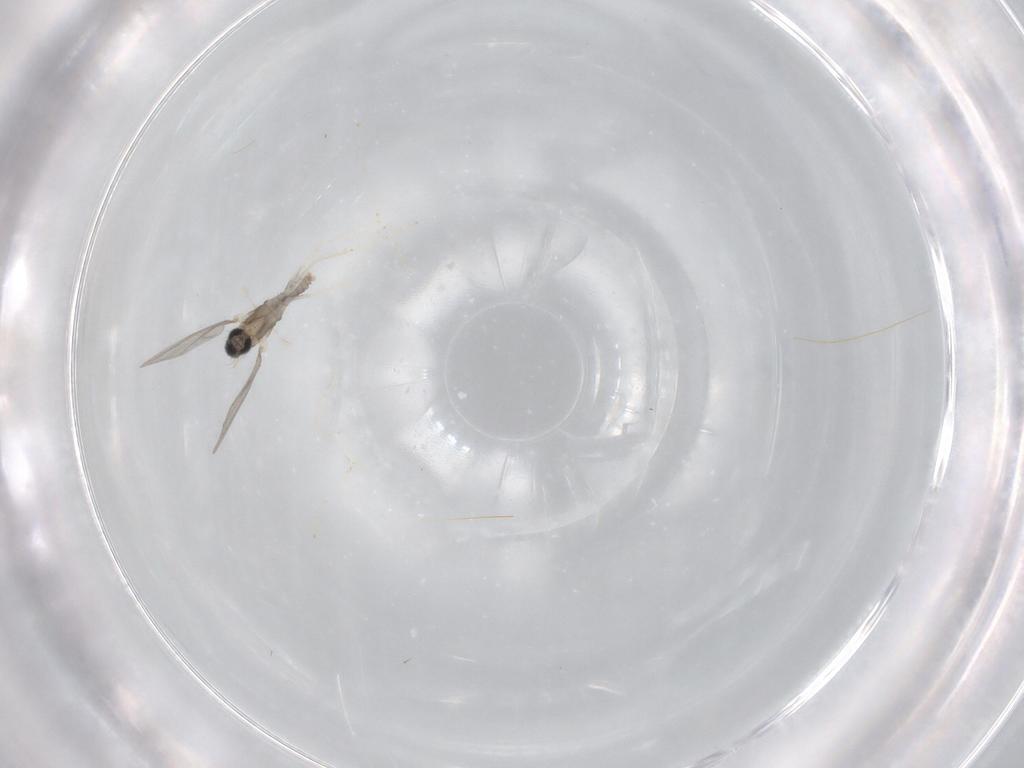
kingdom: Animalia
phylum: Arthropoda
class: Insecta
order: Diptera
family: Cecidomyiidae
